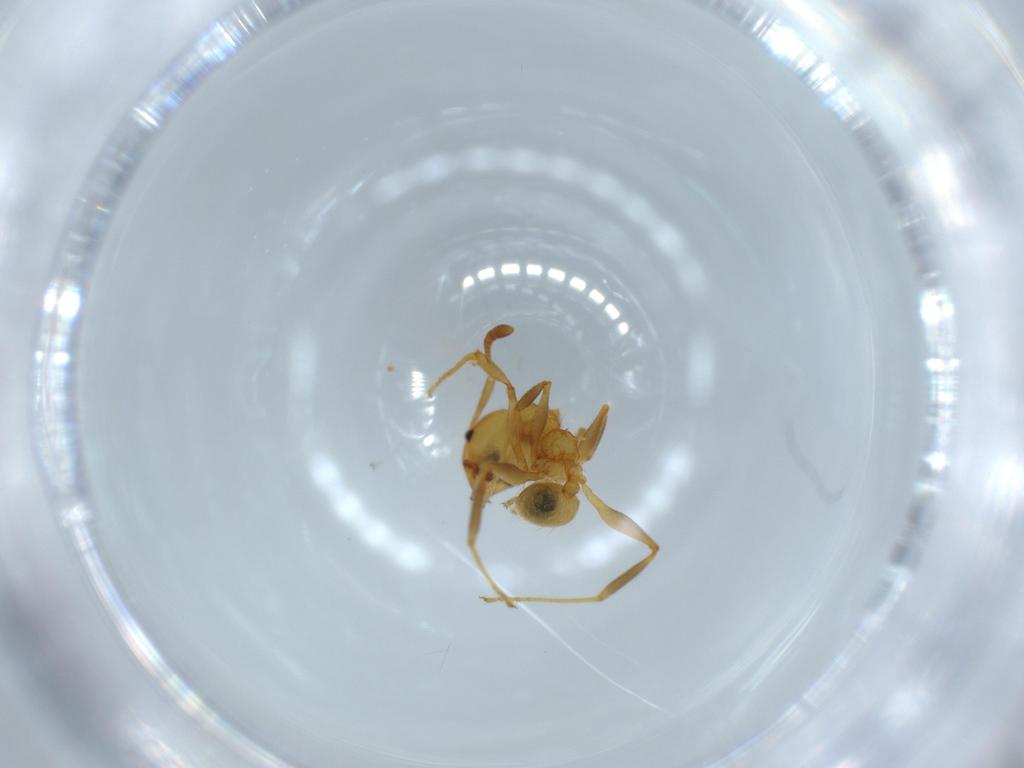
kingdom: Animalia
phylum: Arthropoda
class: Insecta
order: Hymenoptera
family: Formicidae
